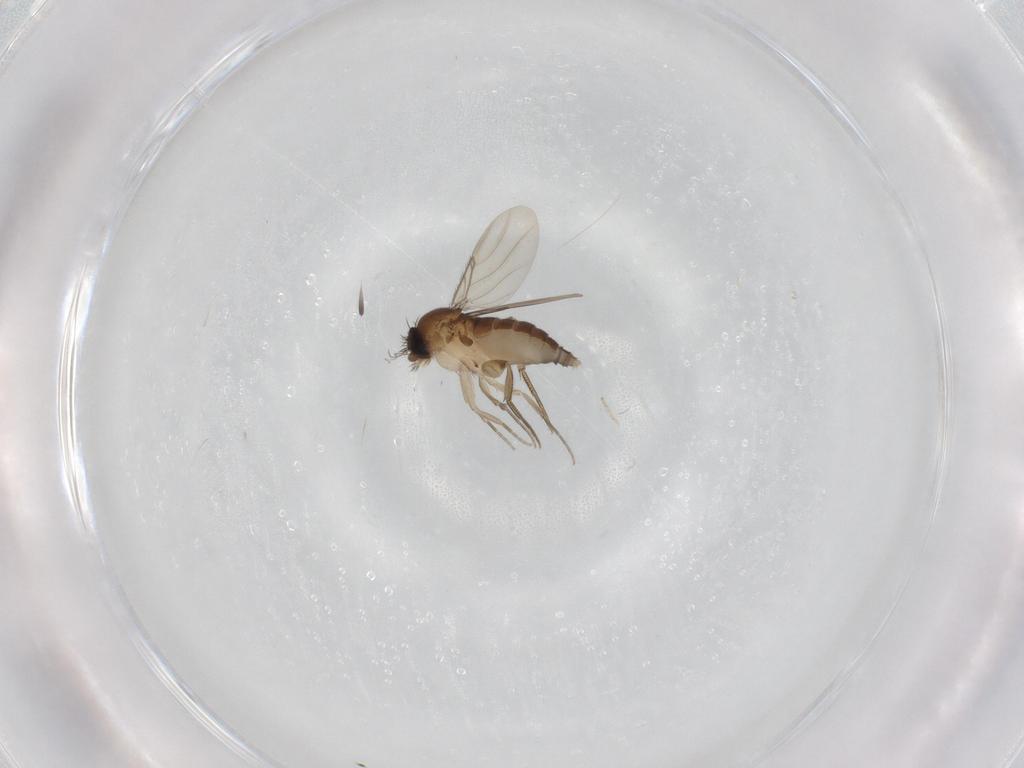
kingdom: Animalia
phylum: Arthropoda
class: Insecta
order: Diptera
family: Phoridae
